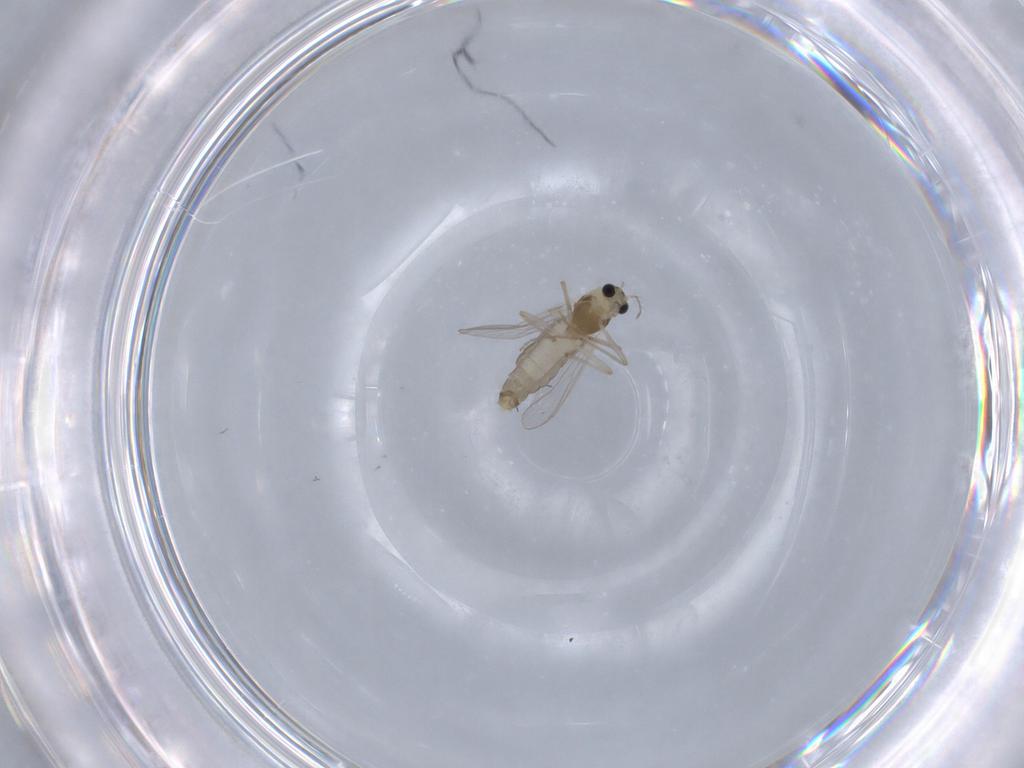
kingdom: Animalia
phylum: Arthropoda
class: Insecta
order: Diptera
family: Chironomidae
